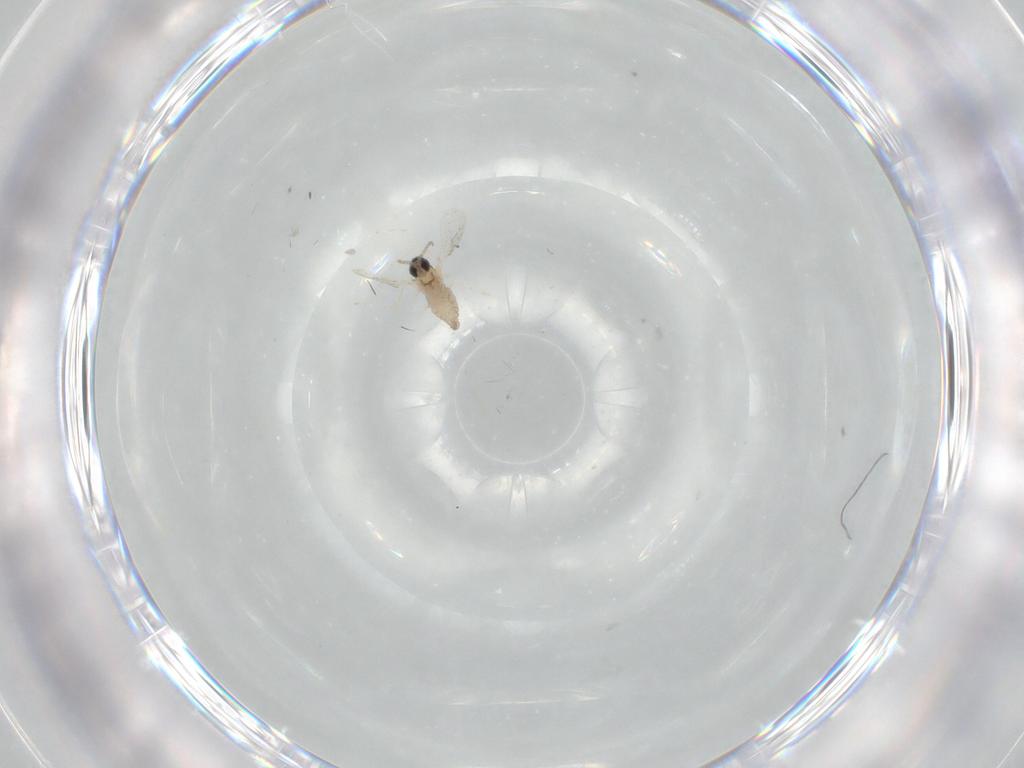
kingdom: Animalia
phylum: Arthropoda
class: Insecta
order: Diptera
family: Cecidomyiidae
